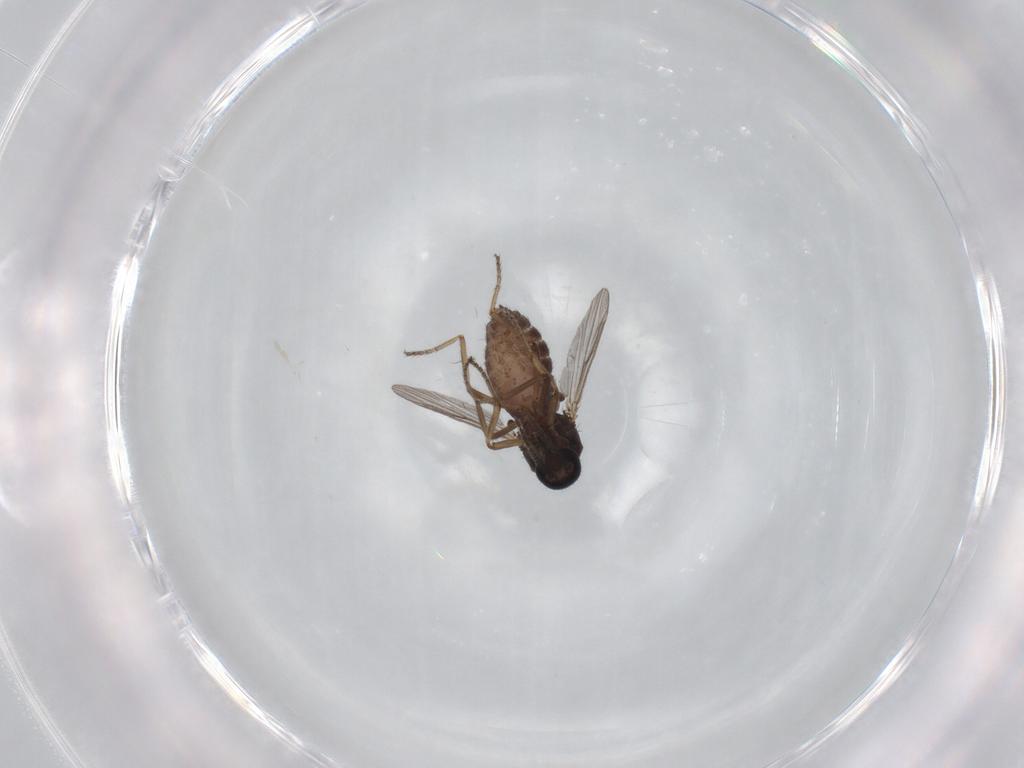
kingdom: Animalia
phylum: Arthropoda
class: Insecta
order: Diptera
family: Ceratopogonidae
